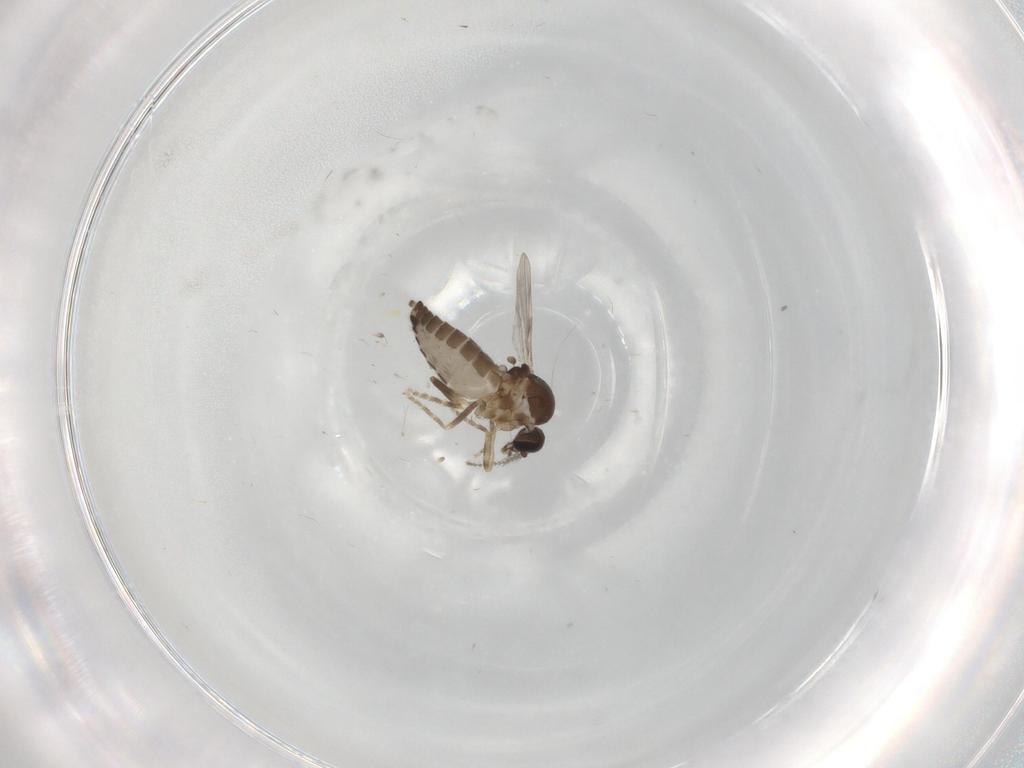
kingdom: Animalia
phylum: Arthropoda
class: Insecta
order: Diptera
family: Ceratopogonidae
